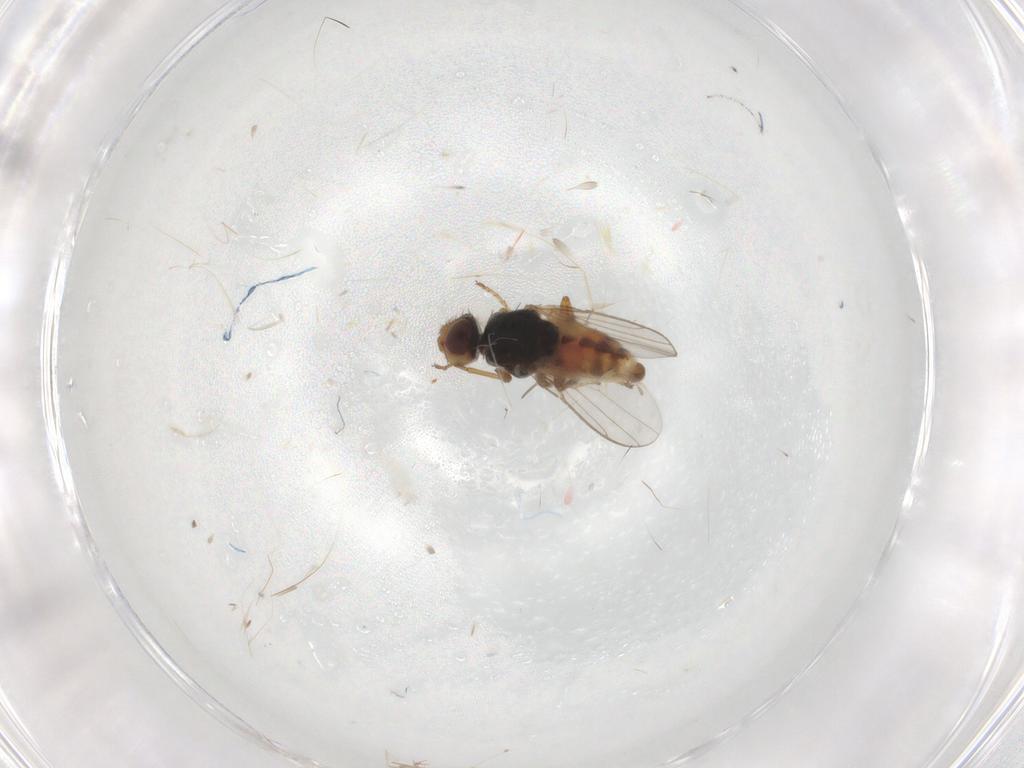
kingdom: Animalia
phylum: Arthropoda
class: Insecta
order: Diptera
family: Chloropidae
